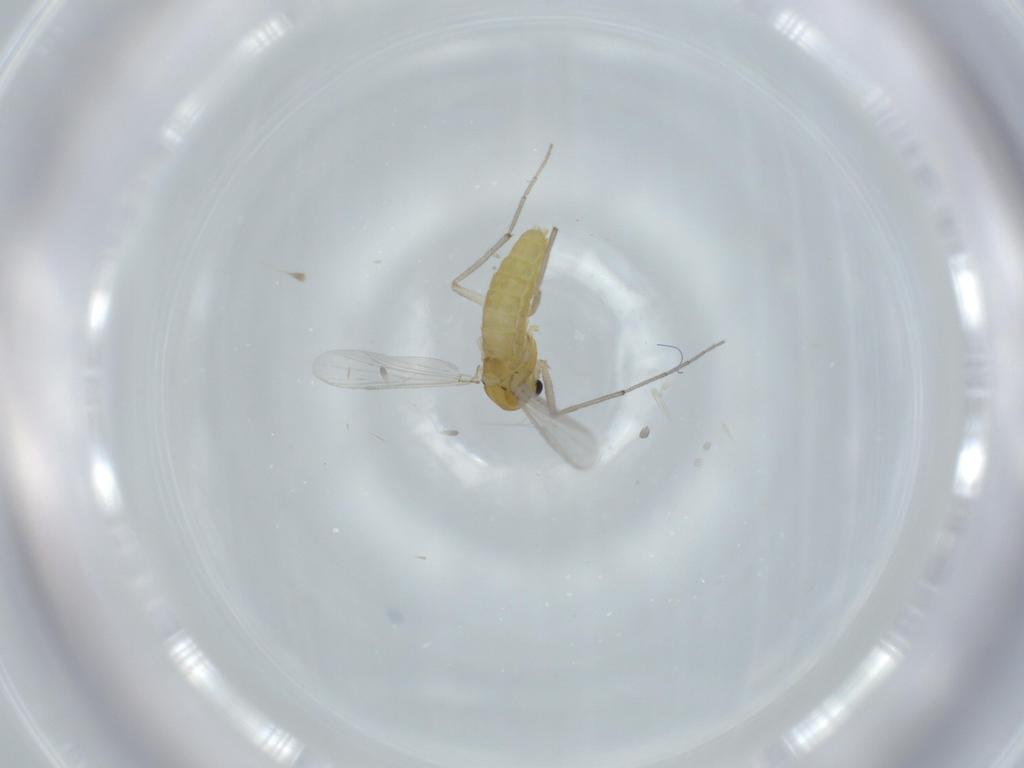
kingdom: Animalia
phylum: Arthropoda
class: Insecta
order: Diptera
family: Chironomidae
